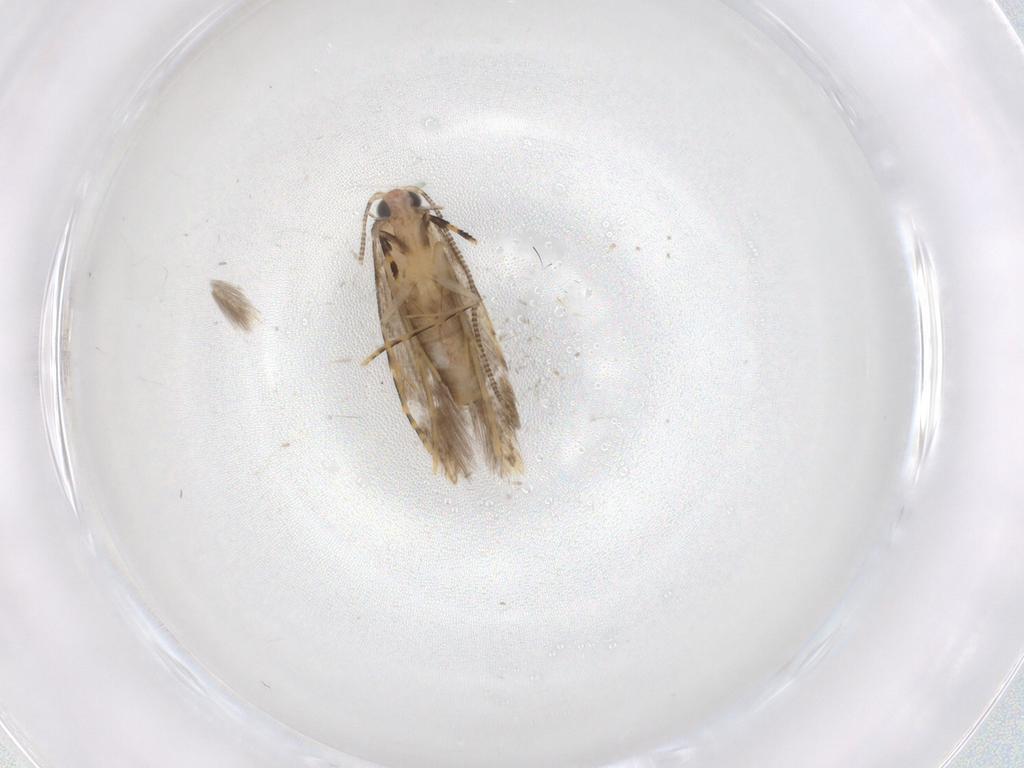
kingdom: Animalia
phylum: Arthropoda
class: Insecta
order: Lepidoptera
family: Tineidae
